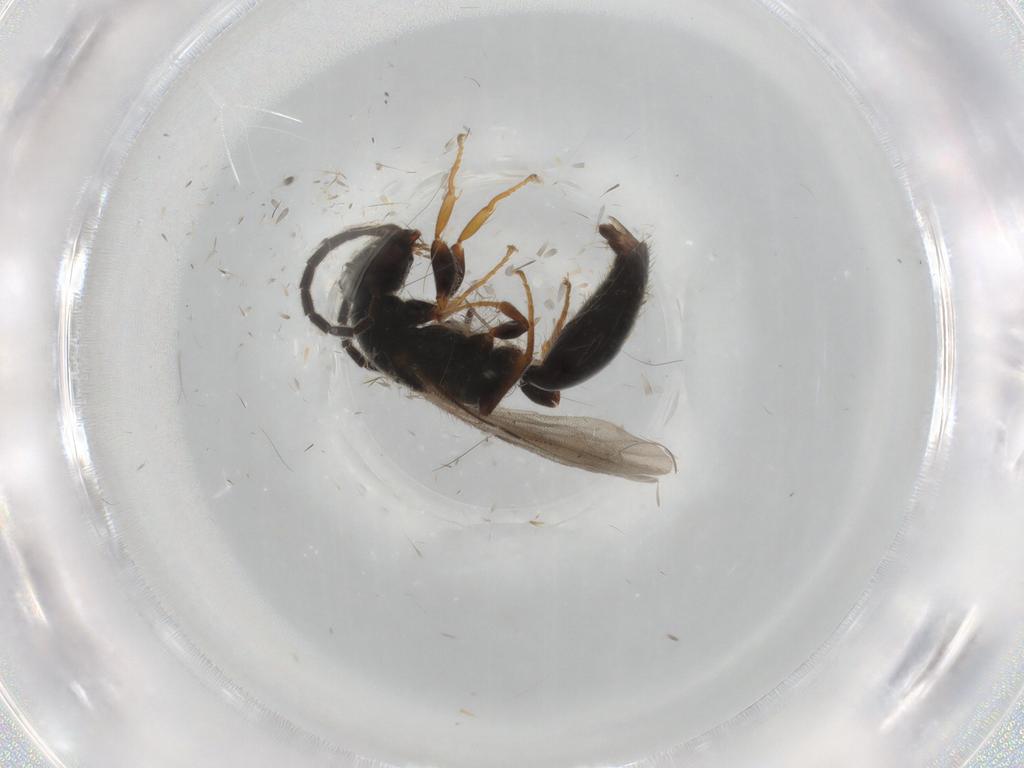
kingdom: Animalia
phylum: Arthropoda
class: Insecta
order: Hymenoptera
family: Bethylidae
